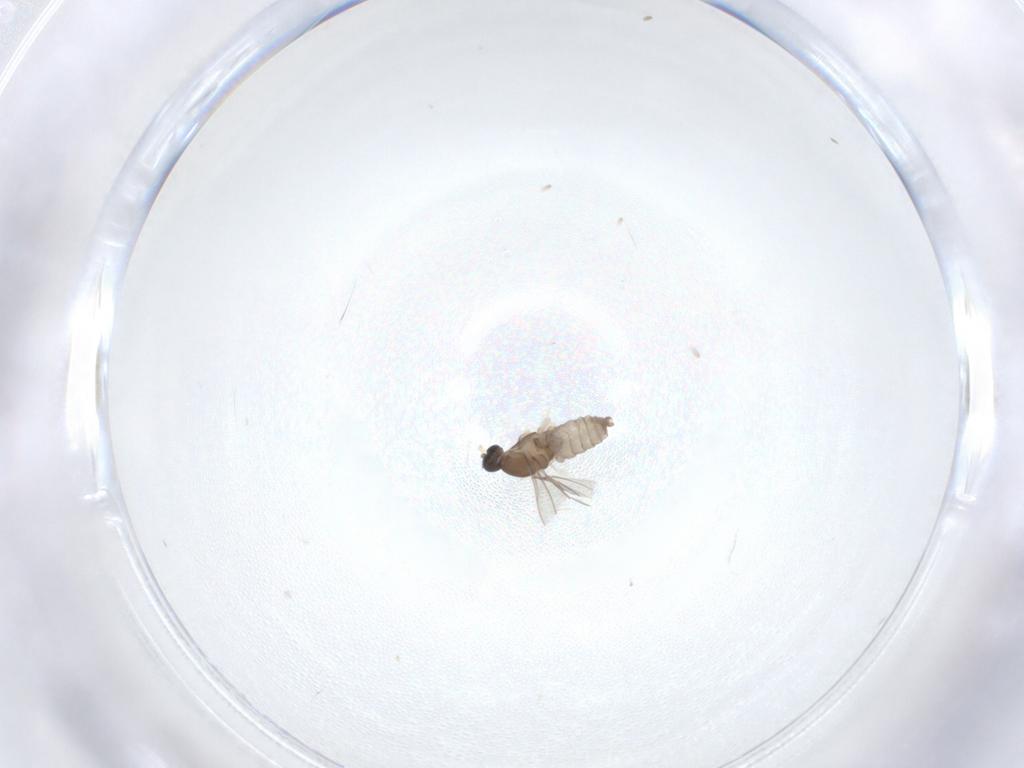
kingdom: Animalia
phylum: Arthropoda
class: Insecta
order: Diptera
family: Cecidomyiidae
